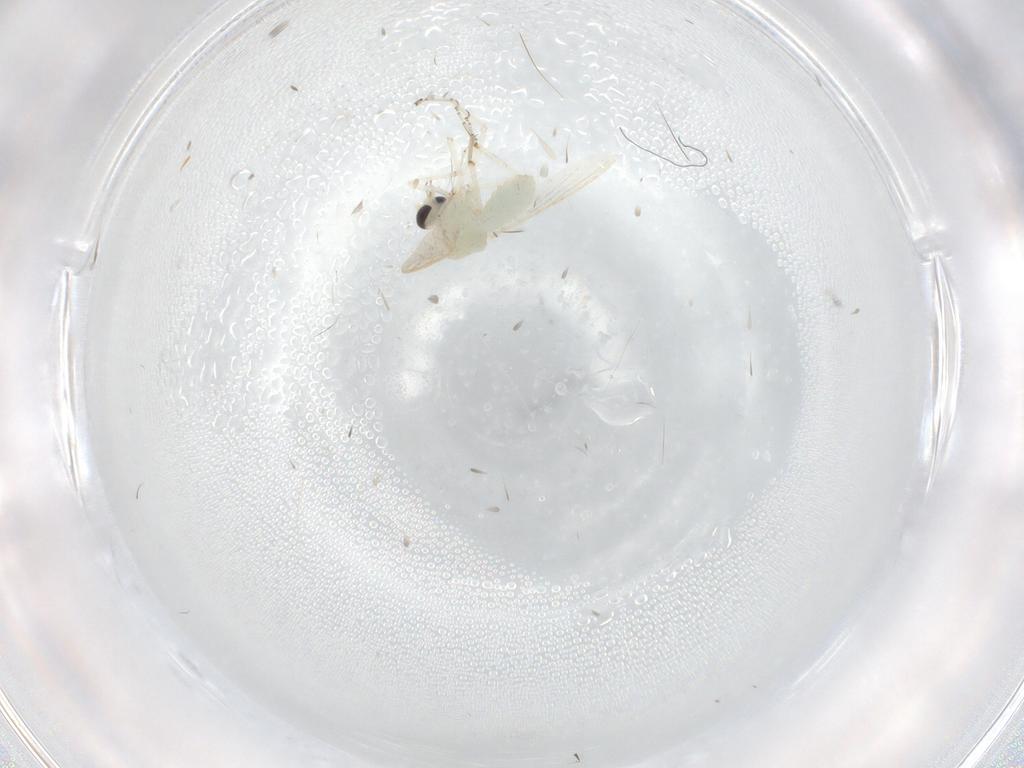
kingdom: Animalia
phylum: Arthropoda
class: Insecta
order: Diptera
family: Ceratopogonidae
